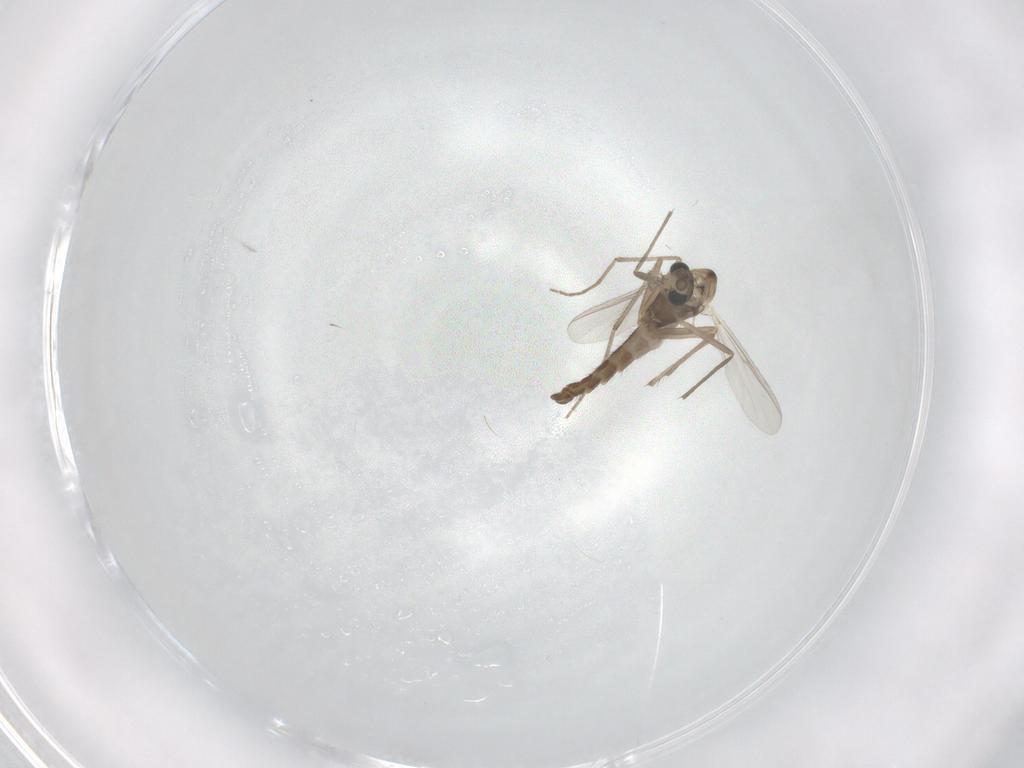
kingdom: Animalia
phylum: Arthropoda
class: Insecta
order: Diptera
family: Chironomidae
